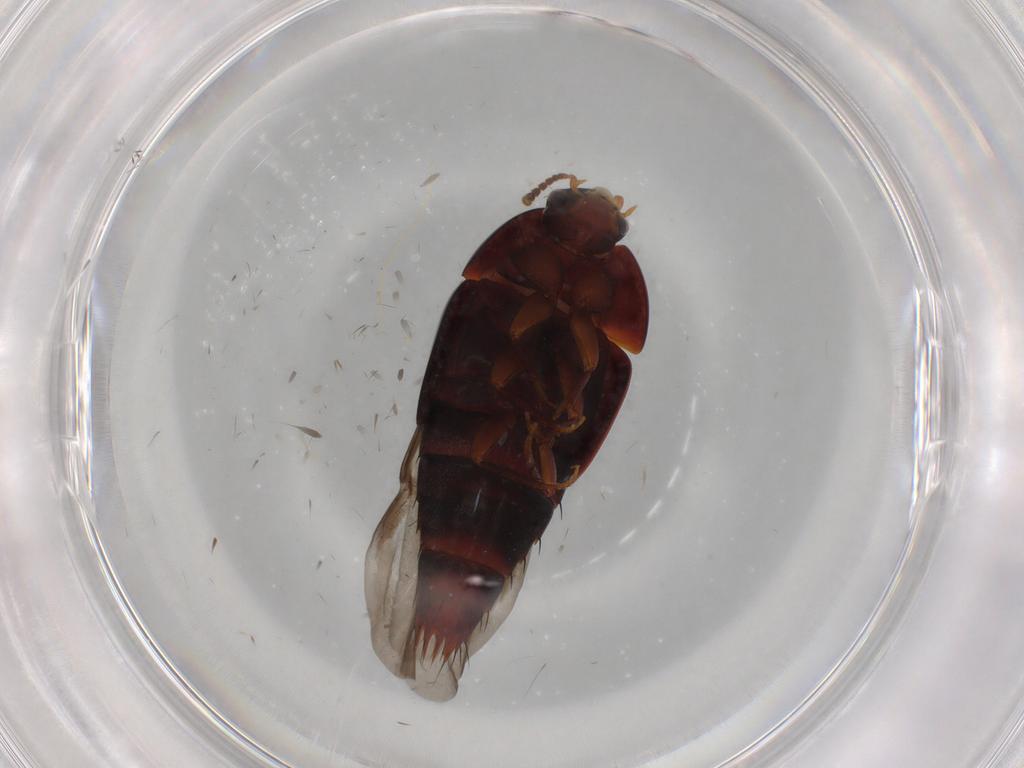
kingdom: Animalia
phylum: Arthropoda
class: Insecta
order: Coleoptera
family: Staphylinidae
